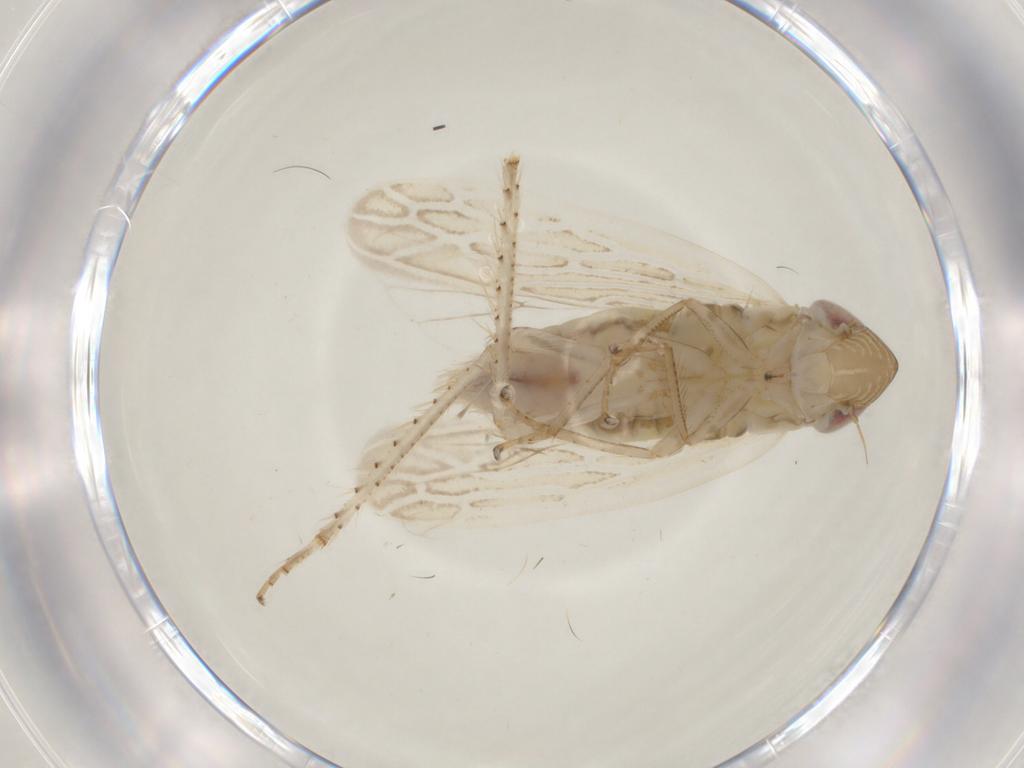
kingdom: Animalia
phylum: Arthropoda
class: Insecta
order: Hemiptera
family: Cicadellidae
